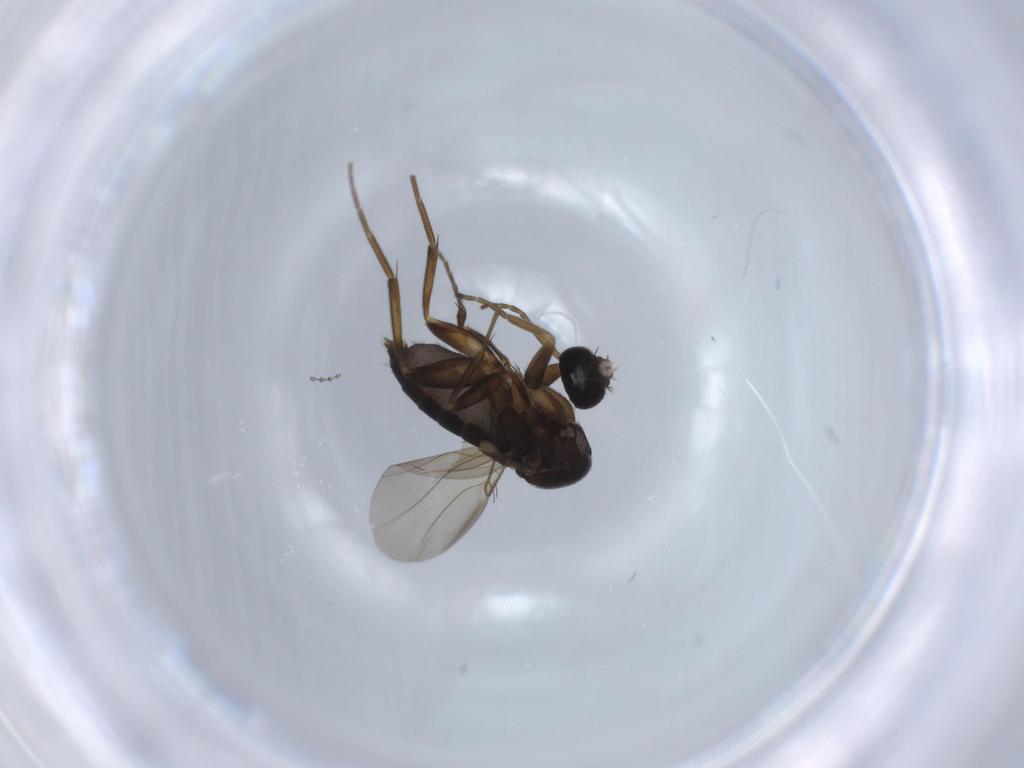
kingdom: Animalia
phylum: Arthropoda
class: Insecta
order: Diptera
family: Phoridae
